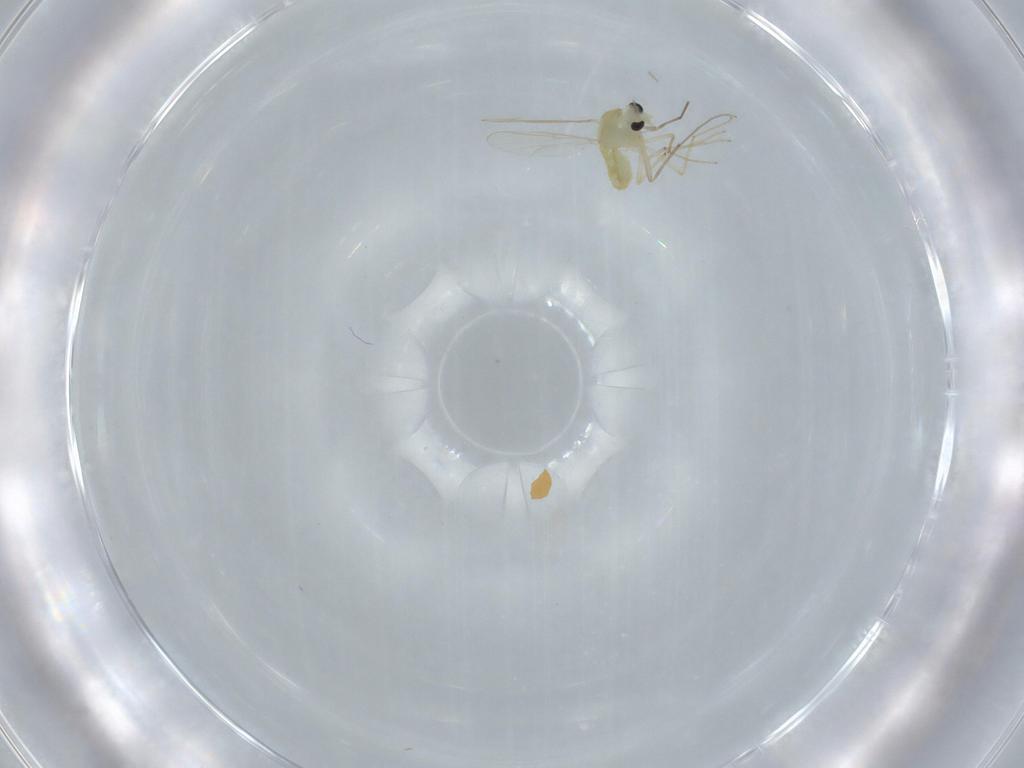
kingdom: Animalia
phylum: Arthropoda
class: Insecta
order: Diptera
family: Chironomidae
